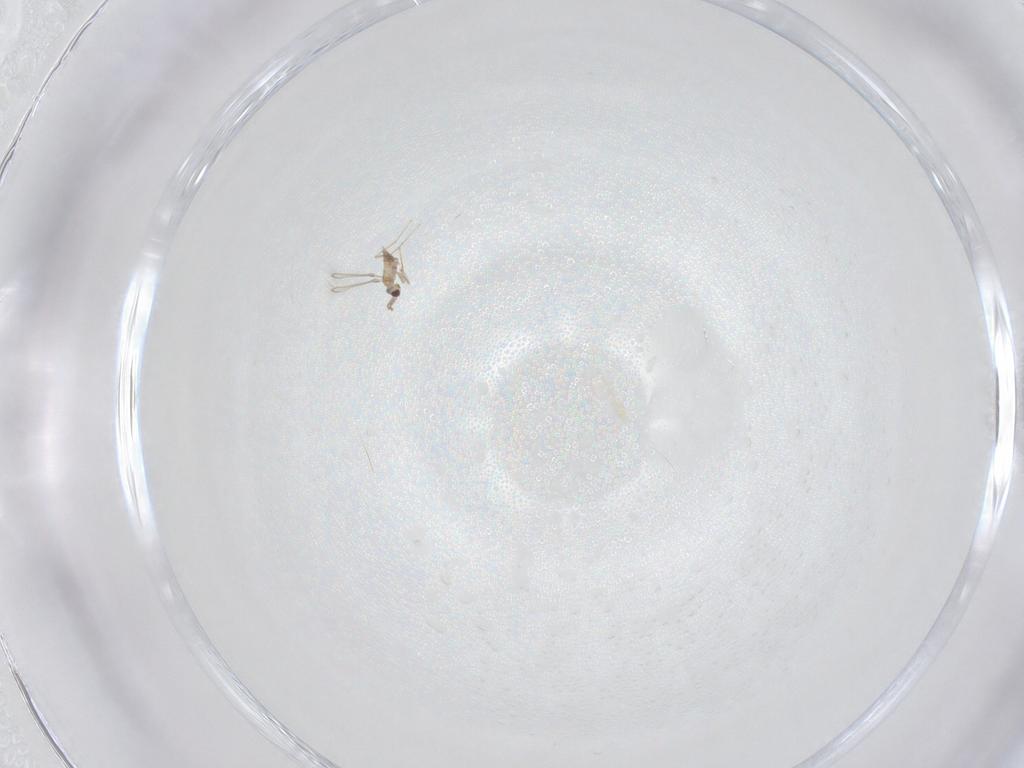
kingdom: Animalia
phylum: Arthropoda
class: Insecta
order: Hymenoptera
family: Mymaridae
